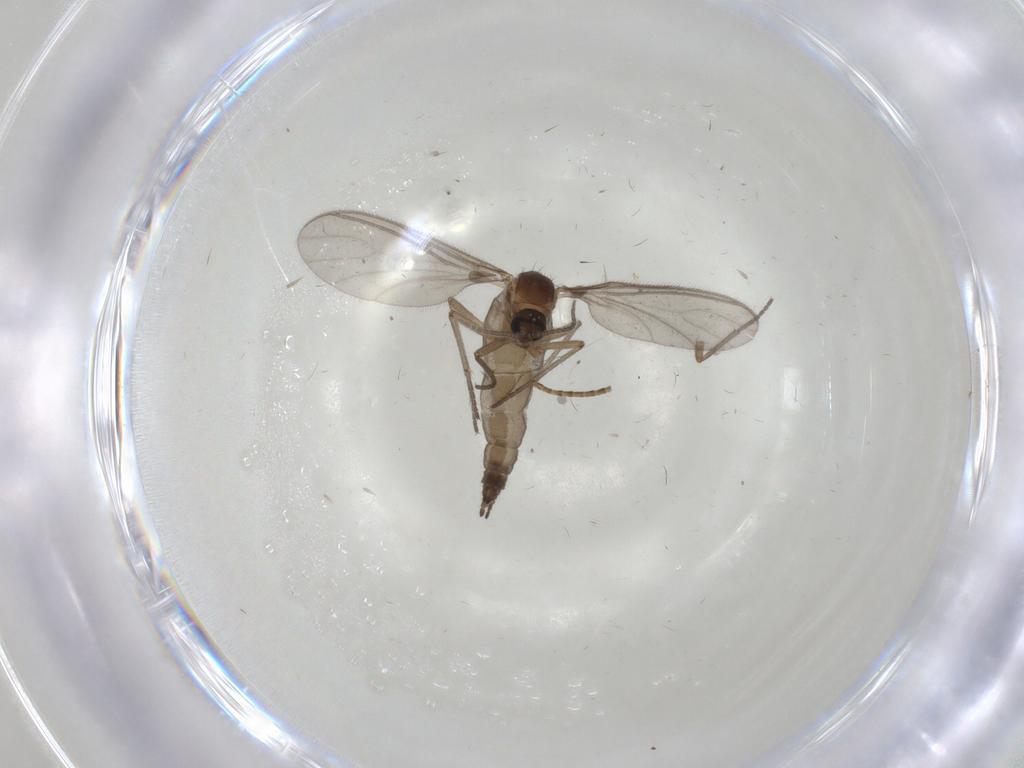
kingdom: Animalia
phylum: Arthropoda
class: Insecta
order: Diptera
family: Sciaridae
